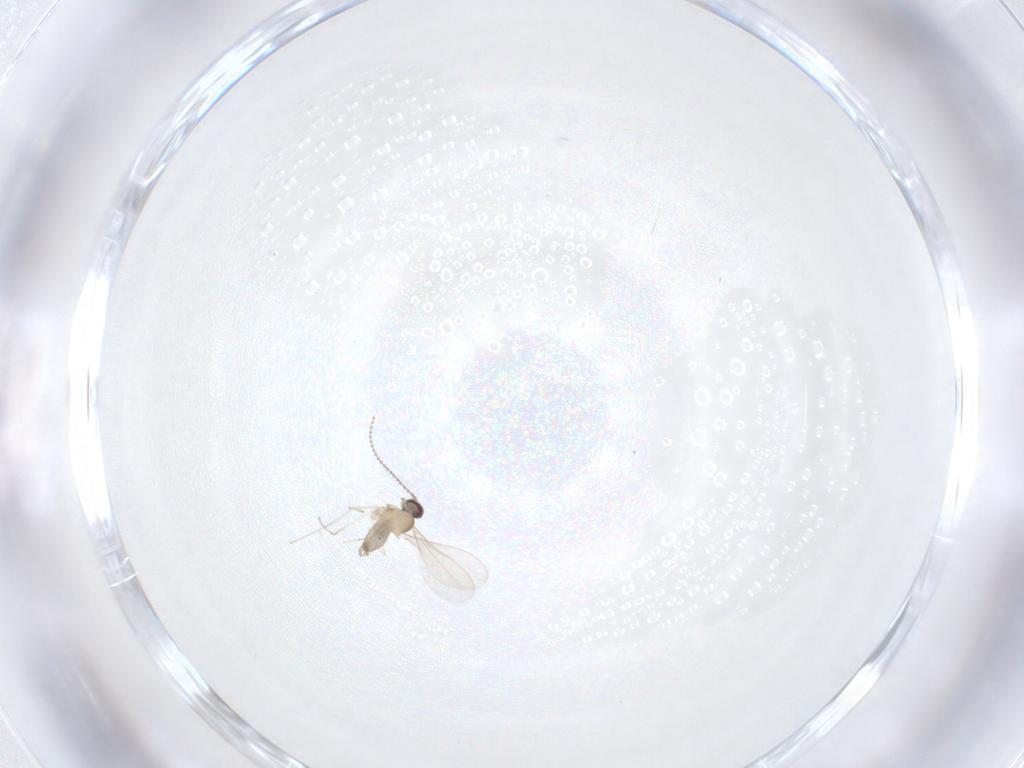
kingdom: Animalia
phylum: Arthropoda
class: Insecta
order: Diptera
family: Cecidomyiidae
